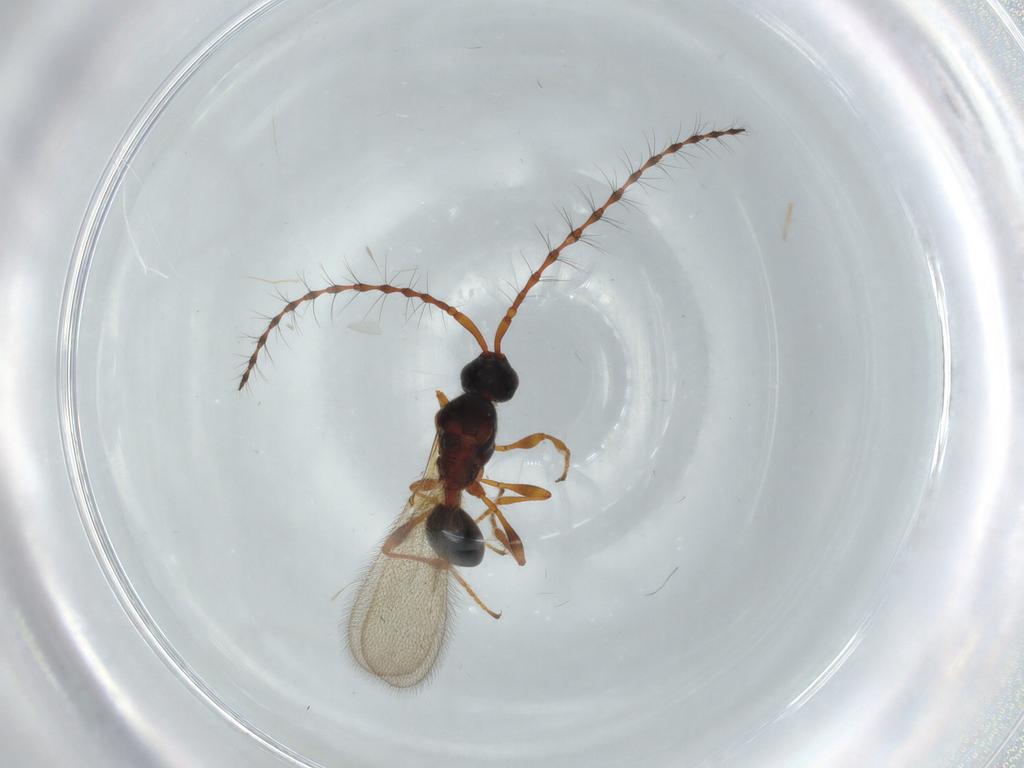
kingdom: Animalia
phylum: Arthropoda
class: Insecta
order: Hymenoptera
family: Diapriidae
